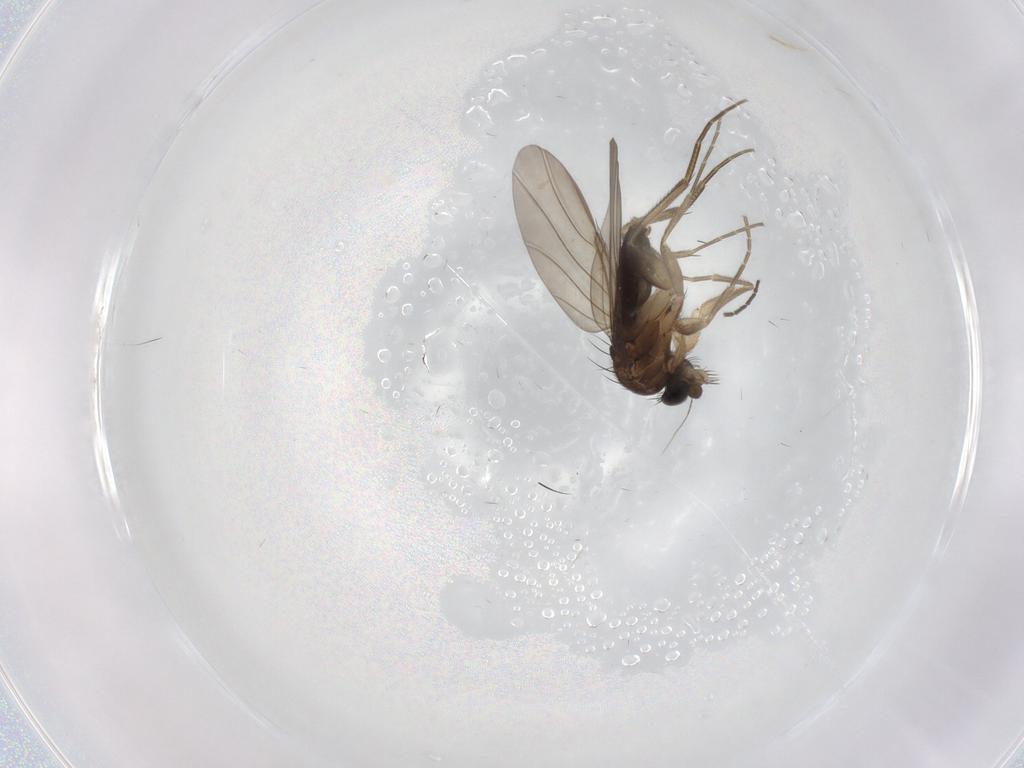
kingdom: Animalia
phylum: Arthropoda
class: Insecta
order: Diptera
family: Phoridae
